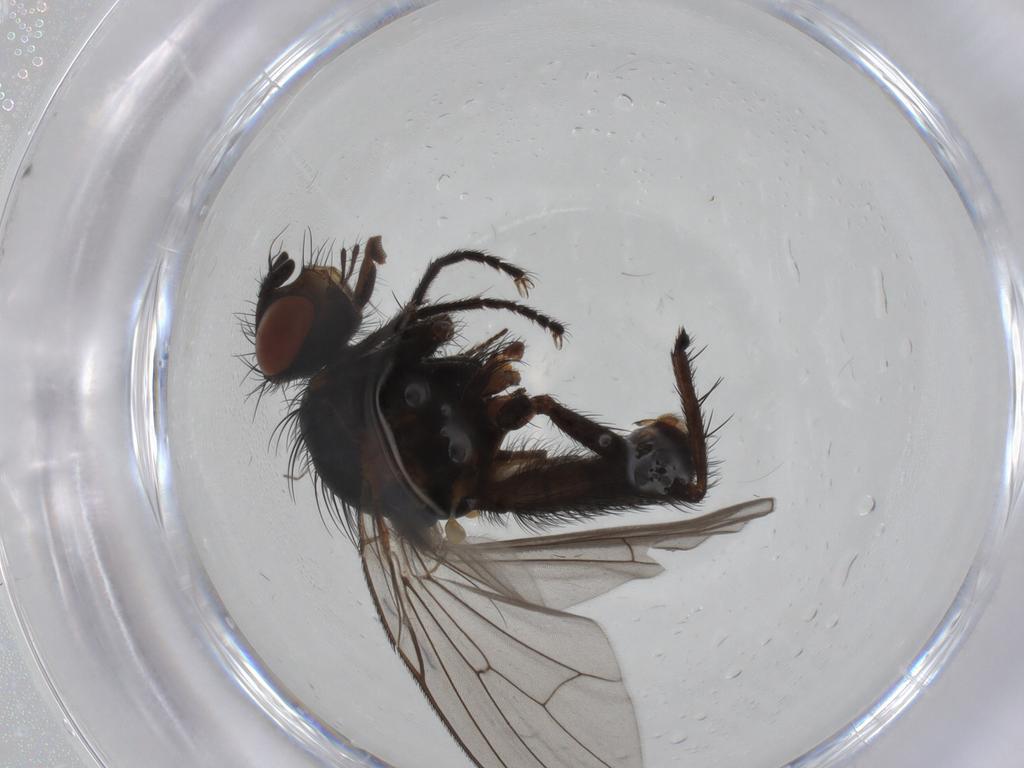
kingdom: Animalia
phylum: Arthropoda
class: Insecta
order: Diptera
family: Anthomyiidae
